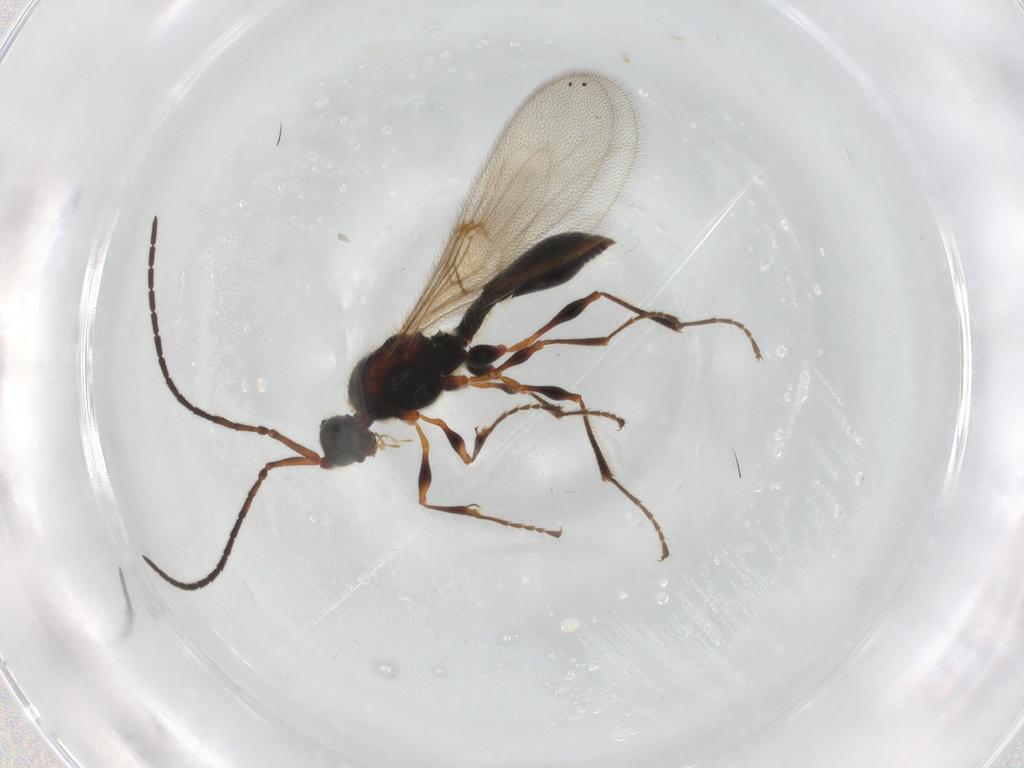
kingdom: Animalia
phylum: Arthropoda
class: Insecta
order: Hymenoptera
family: Diapriidae
